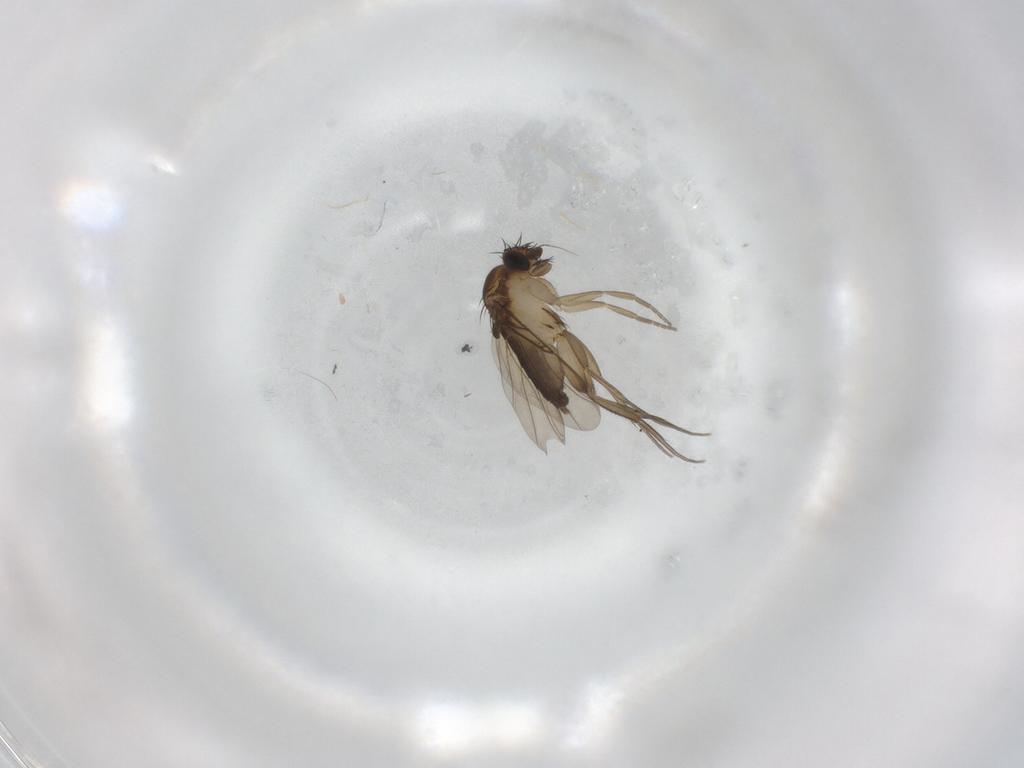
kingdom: Animalia
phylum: Arthropoda
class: Insecta
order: Diptera
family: Phoridae
